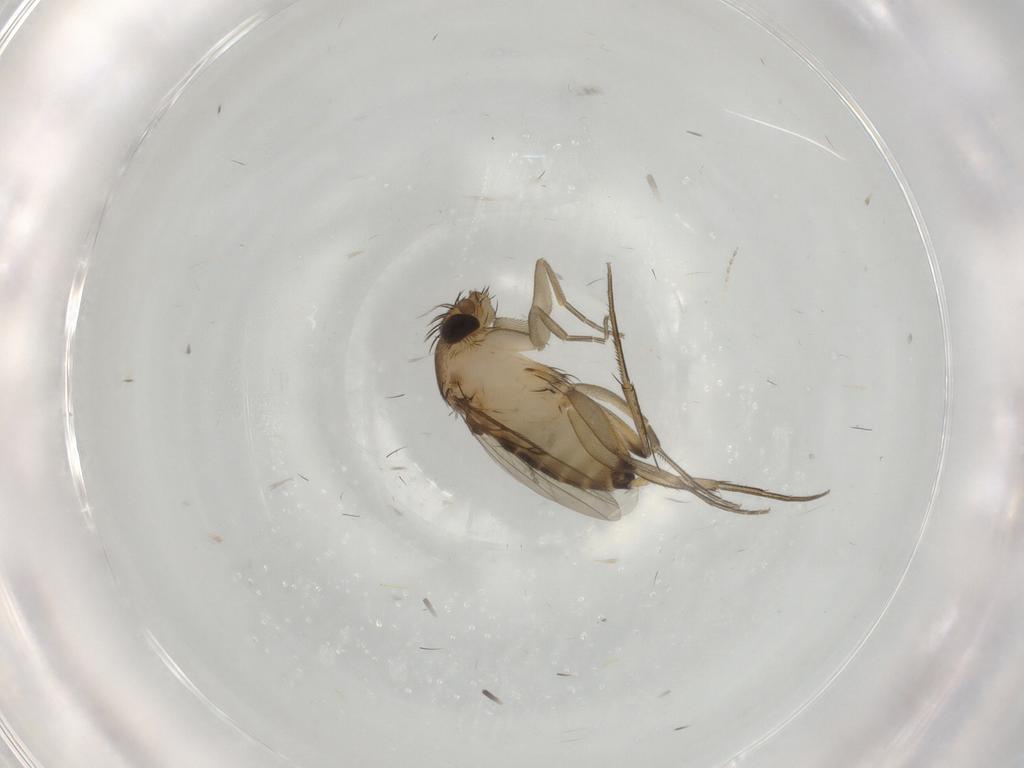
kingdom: Animalia
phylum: Arthropoda
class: Insecta
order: Diptera
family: Phoridae
